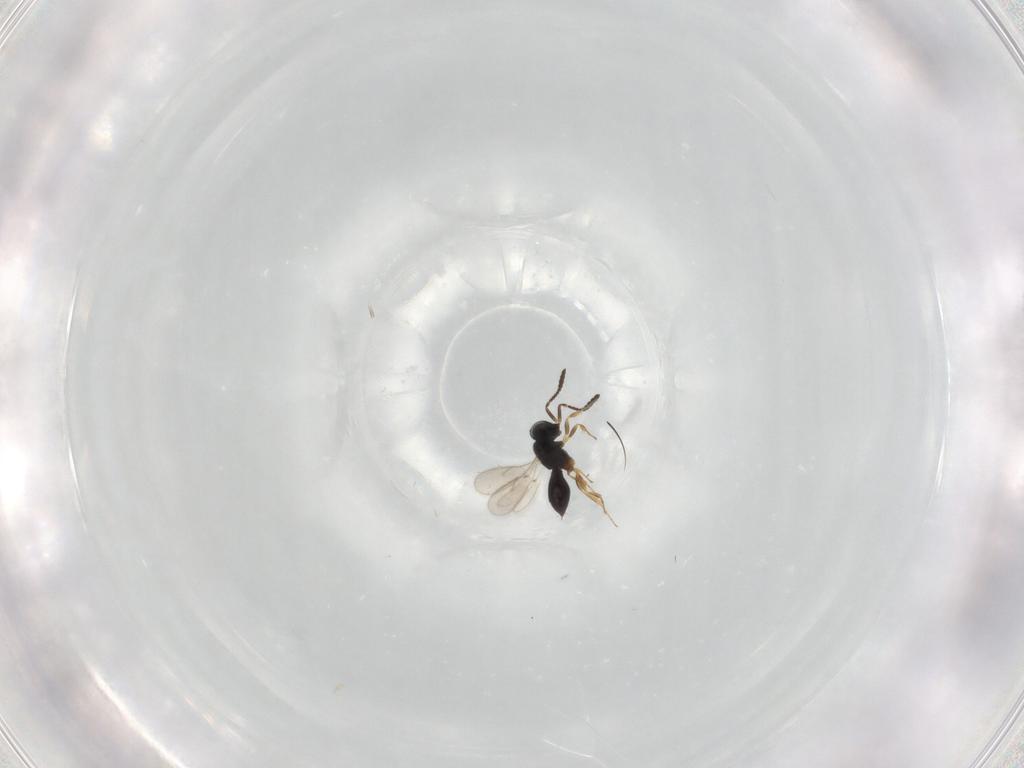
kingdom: Animalia
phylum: Arthropoda
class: Insecta
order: Hymenoptera
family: Scelionidae
